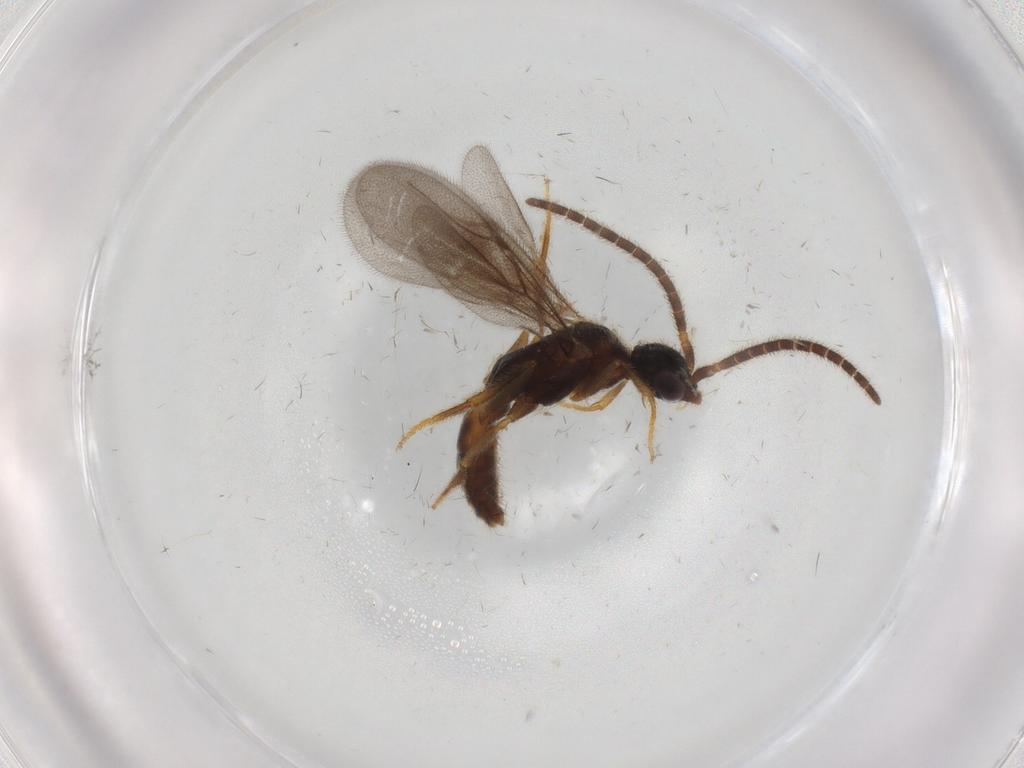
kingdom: Animalia
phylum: Arthropoda
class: Insecta
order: Hymenoptera
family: Bethylidae
